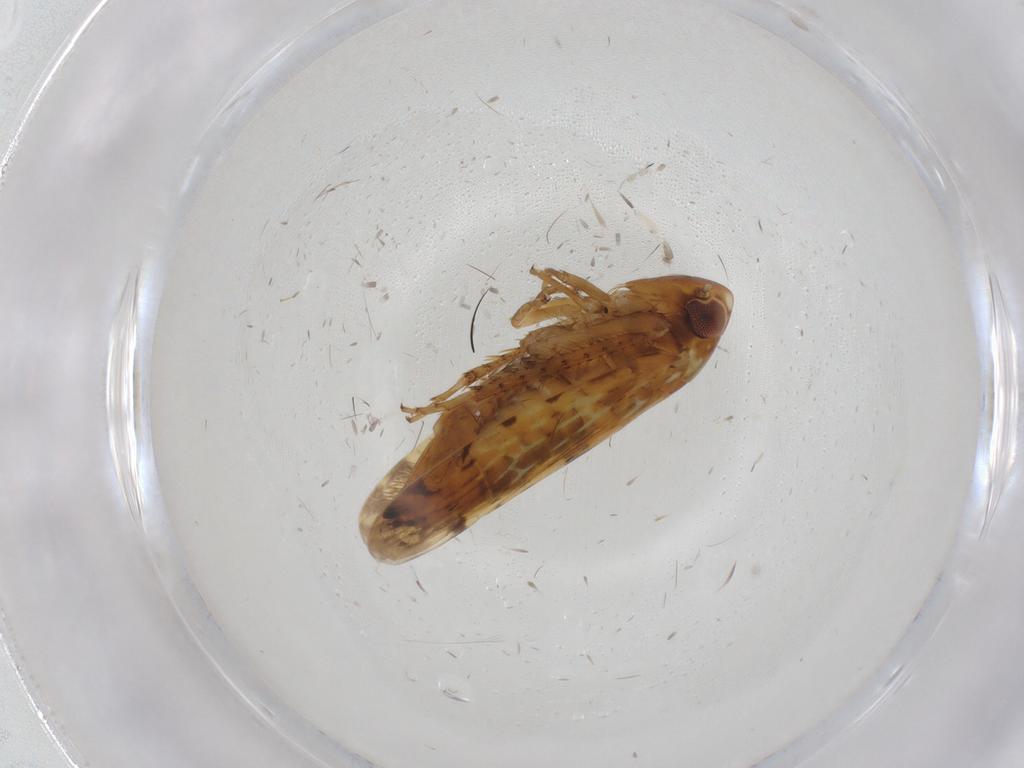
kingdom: Animalia
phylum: Arthropoda
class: Insecta
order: Hemiptera
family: Cicadellidae
